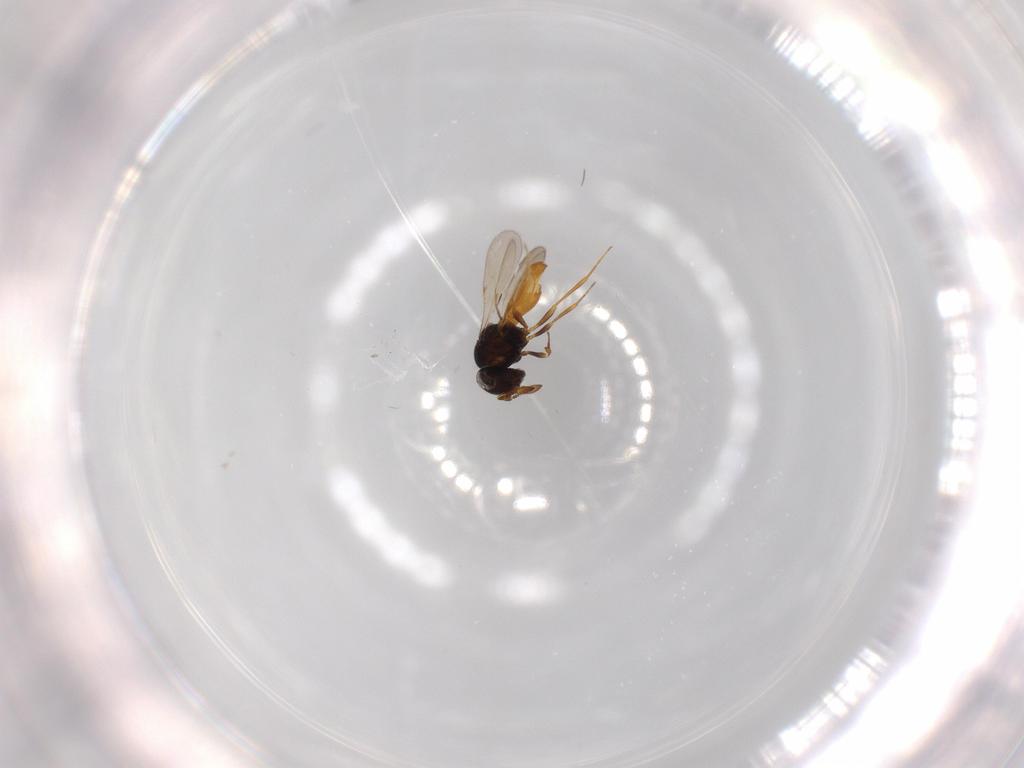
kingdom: Animalia
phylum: Arthropoda
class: Insecta
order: Hymenoptera
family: Scelionidae
